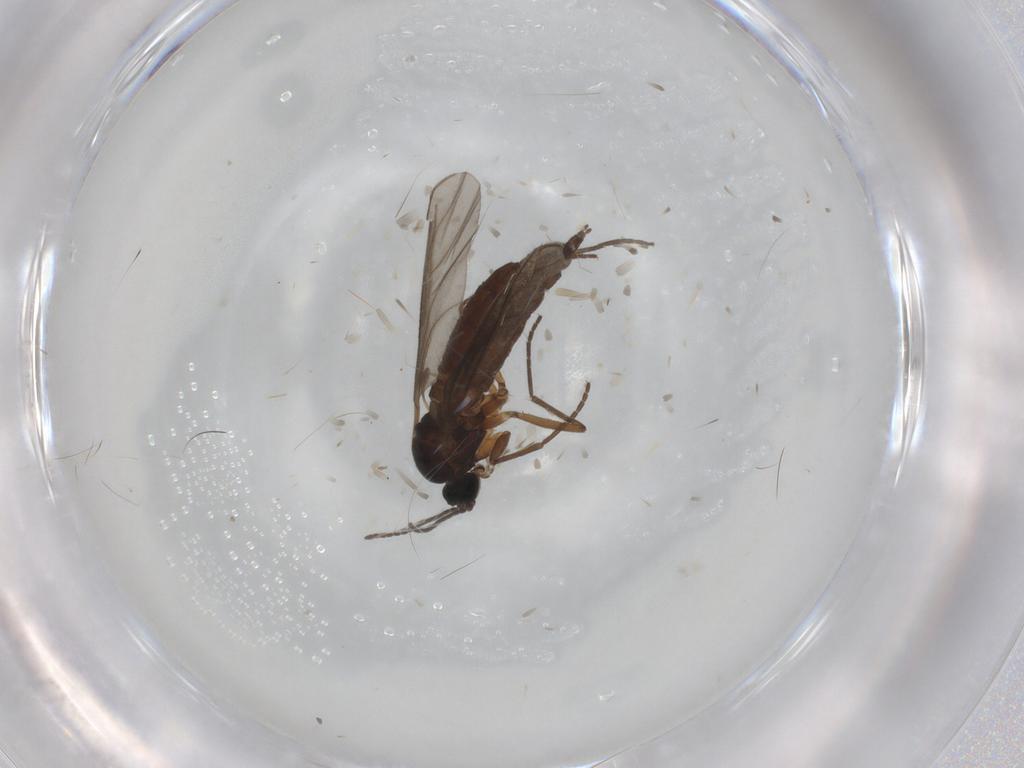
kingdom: Animalia
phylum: Arthropoda
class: Insecta
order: Diptera
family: Sciaridae
